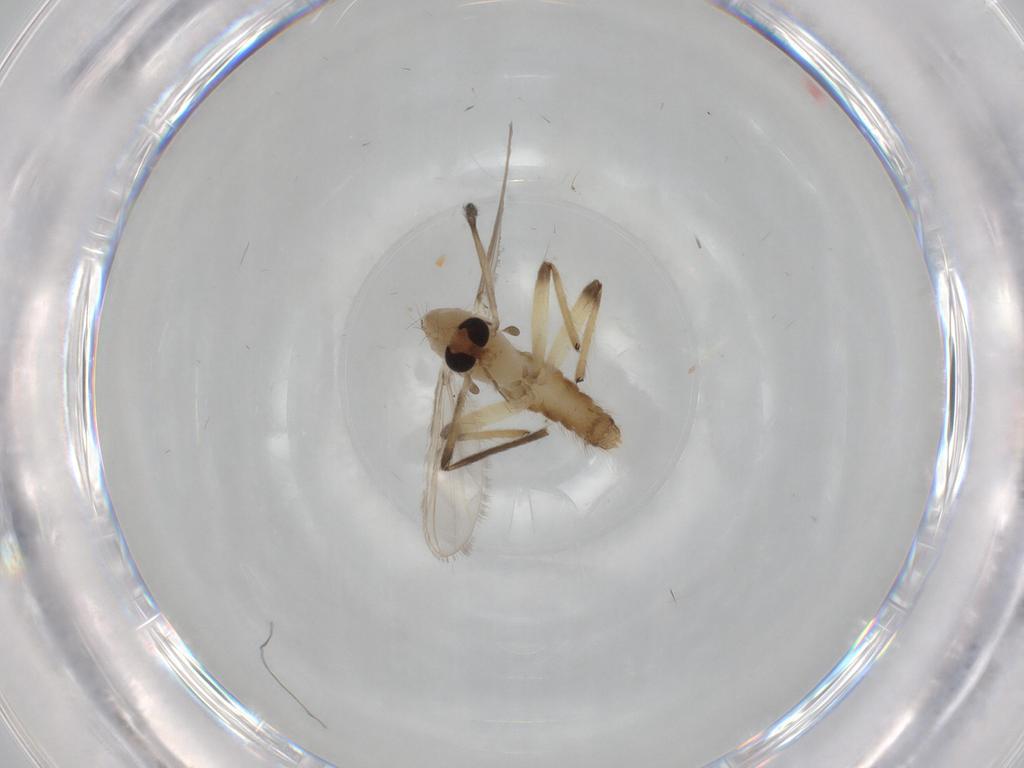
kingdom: Animalia
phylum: Arthropoda
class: Insecta
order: Diptera
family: Chironomidae
